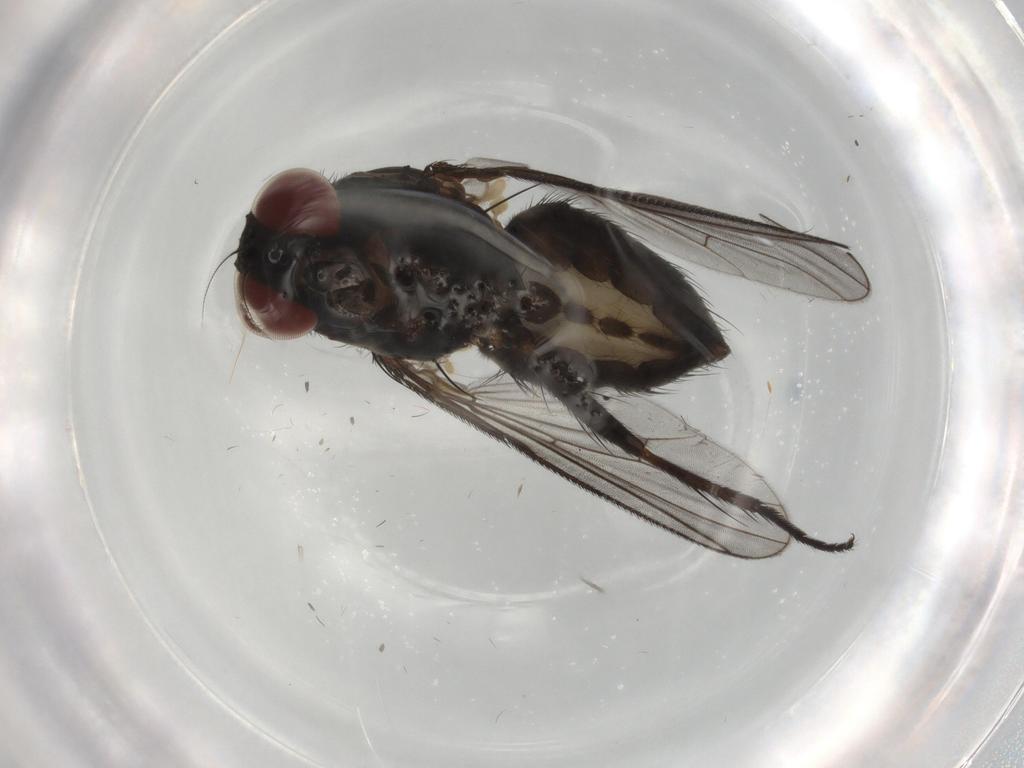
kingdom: Animalia
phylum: Arthropoda
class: Insecta
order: Diptera
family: Muscidae
